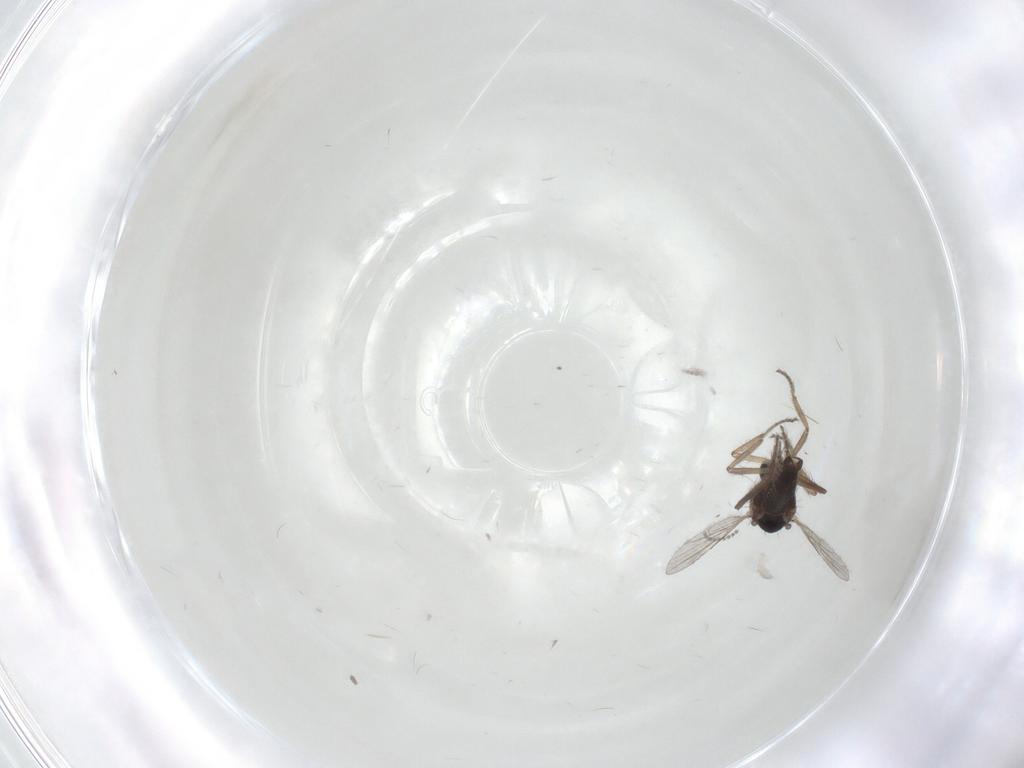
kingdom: Animalia
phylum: Arthropoda
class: Insecta
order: Diptera
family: Ceratopogonidae
